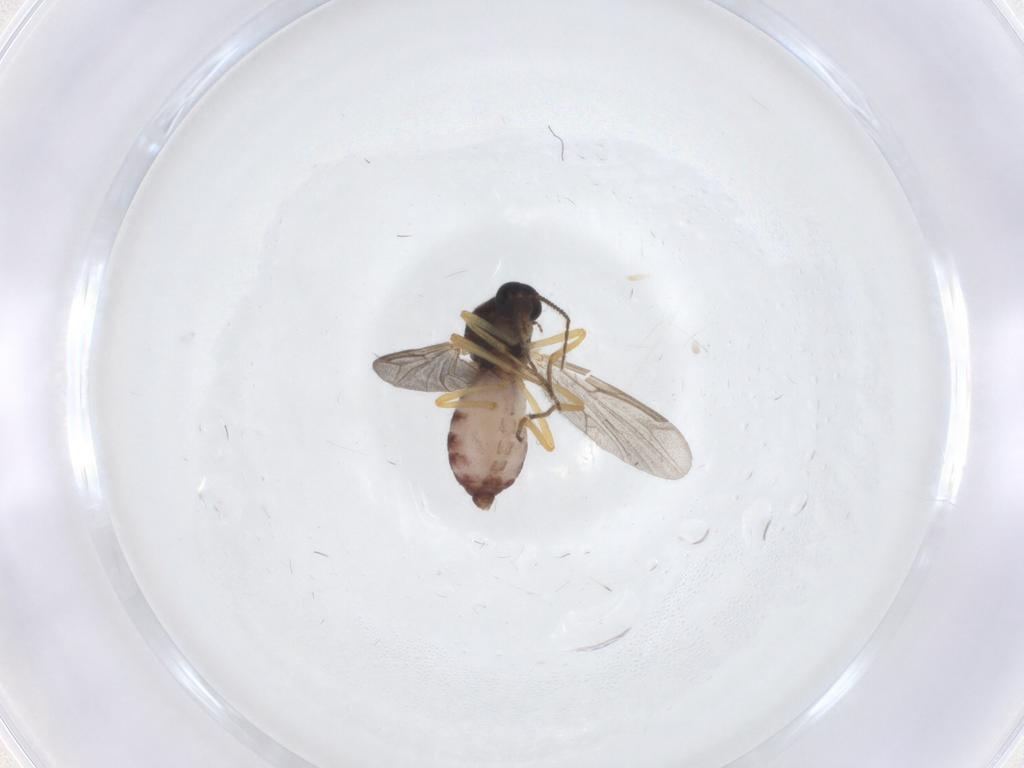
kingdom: Animalia
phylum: Arthropoda
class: Insecta
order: Diptera
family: Ceratopogonidae
